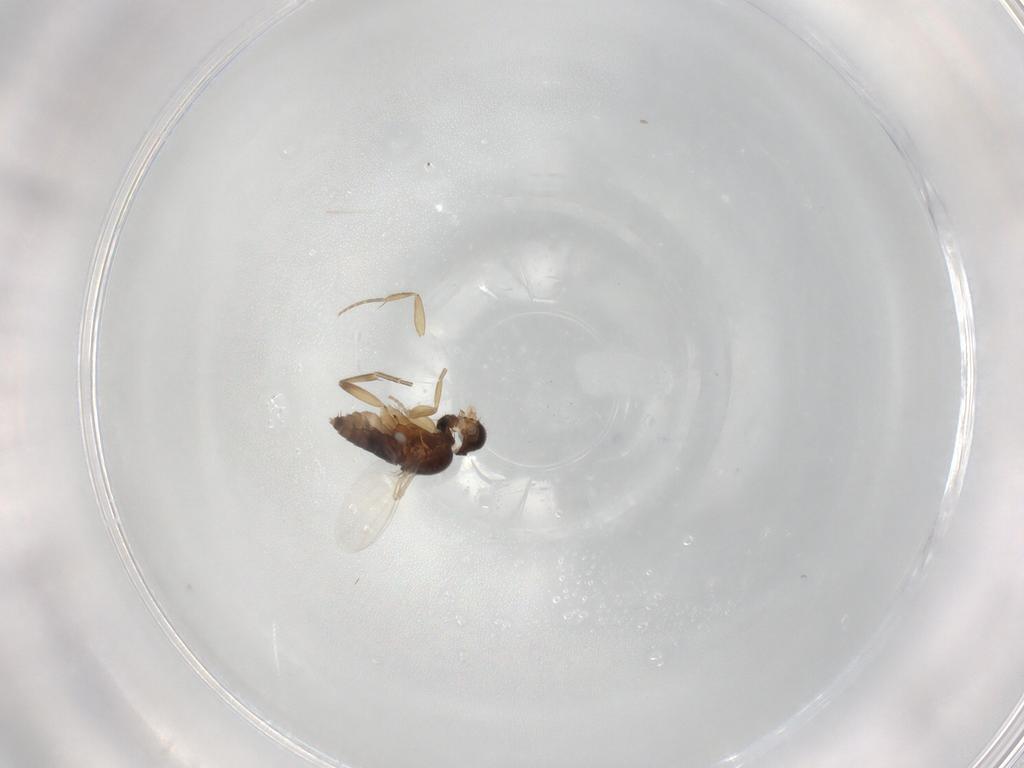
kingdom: Animalia
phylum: Arthropoda
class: Insecta
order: Diptera
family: Phoridae
